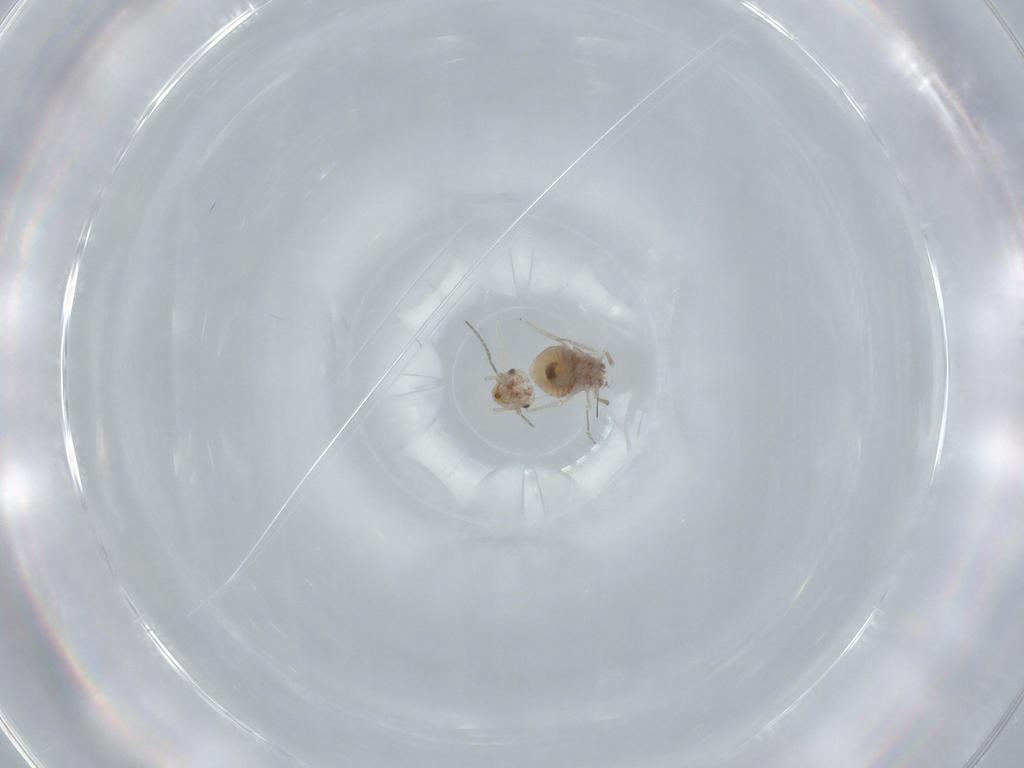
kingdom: Animalia
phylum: Arthropoda
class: Insecta
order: Psocodea
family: Ectopsocidae
